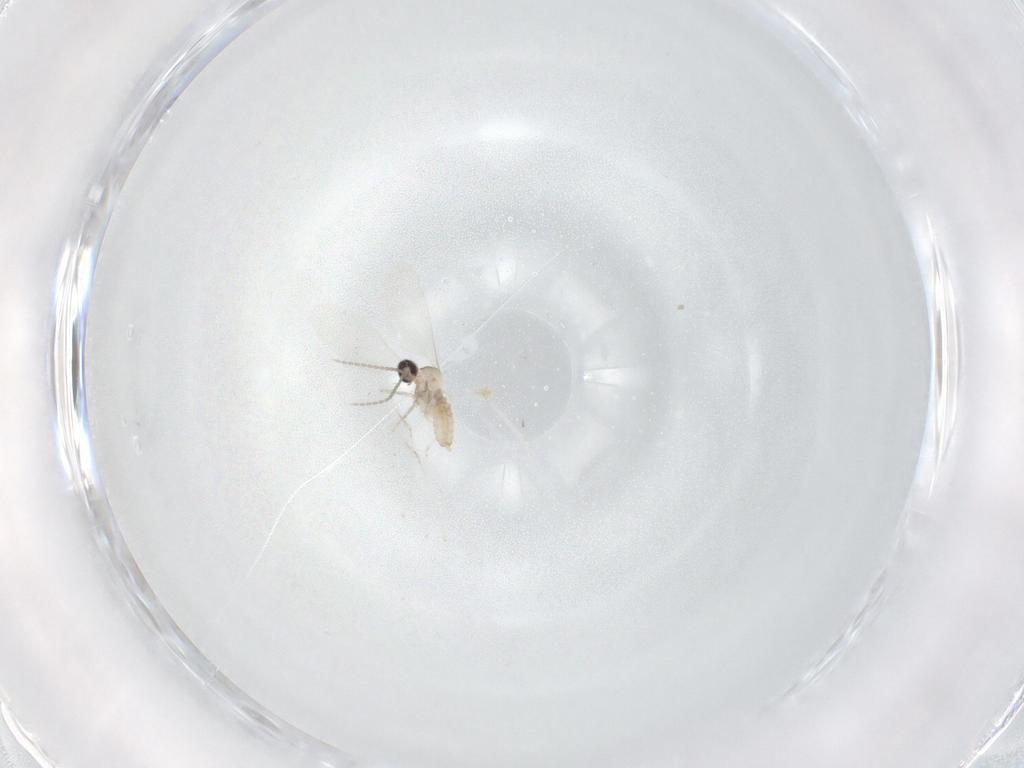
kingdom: Animalia
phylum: Arthropoda
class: Insecta
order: Diptera
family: Cecidomyiidae
